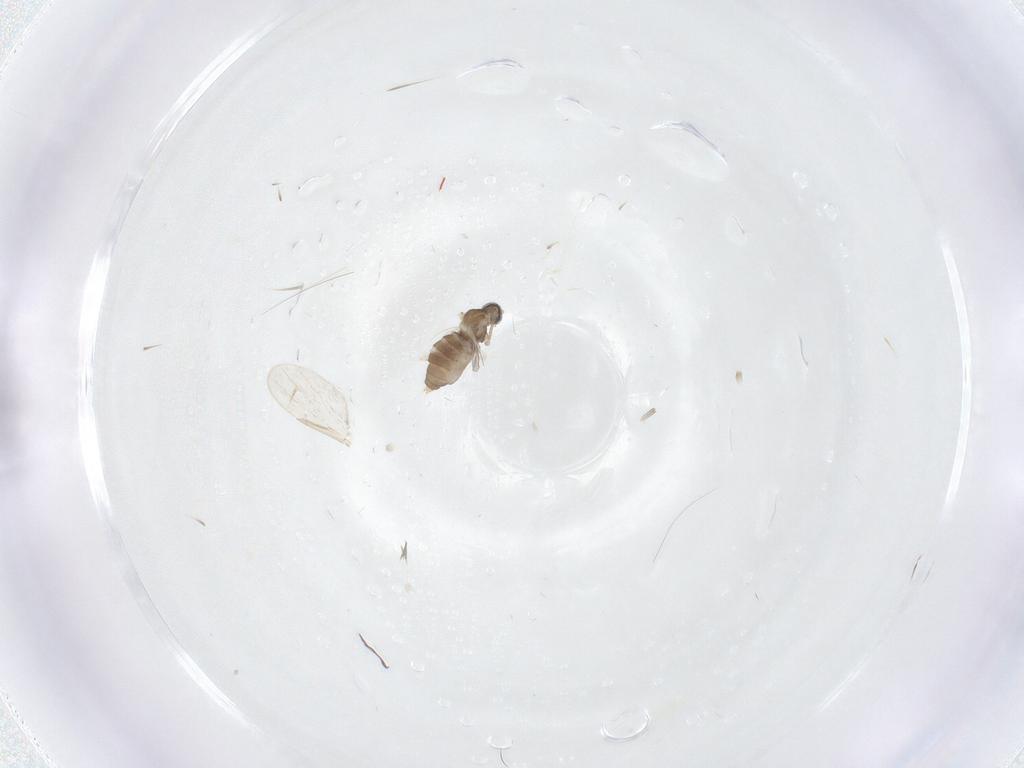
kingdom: Animalia
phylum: Arthropoda
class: Insecta
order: Diptera
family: Cecidomyiidae
